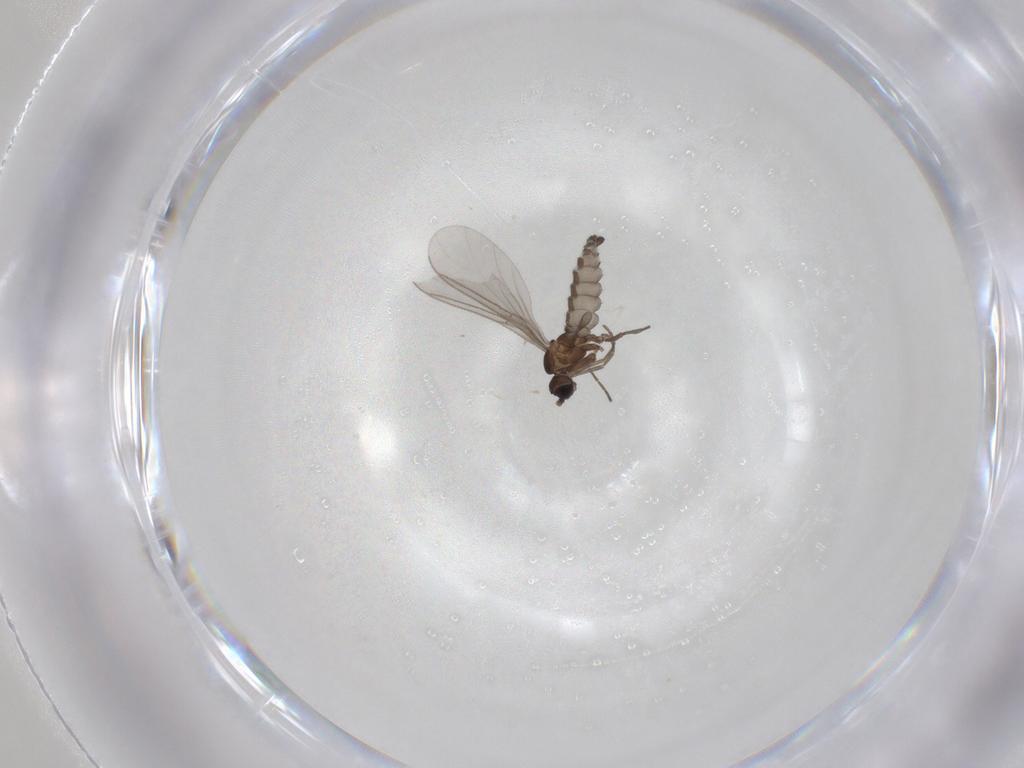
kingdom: Animalia
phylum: Arthropoda
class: Insecta
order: Diptera
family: Sciaridae
